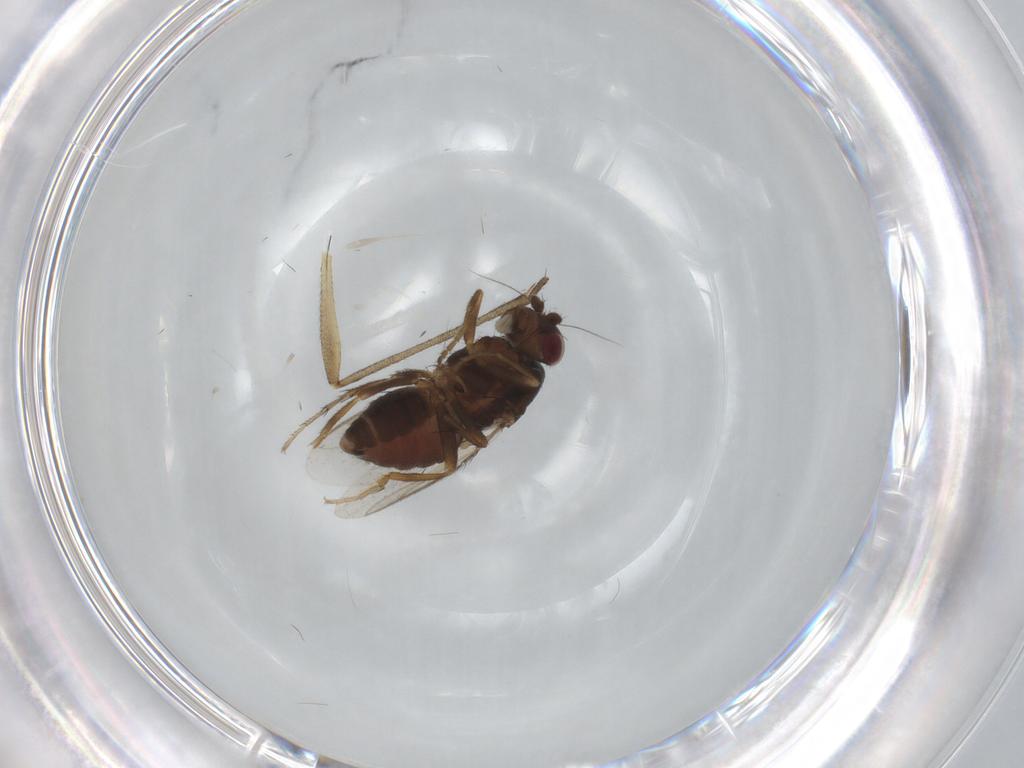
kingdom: Animalia
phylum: Arthropoda
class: Insecta
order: Diptera
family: Sphaeroceridae
